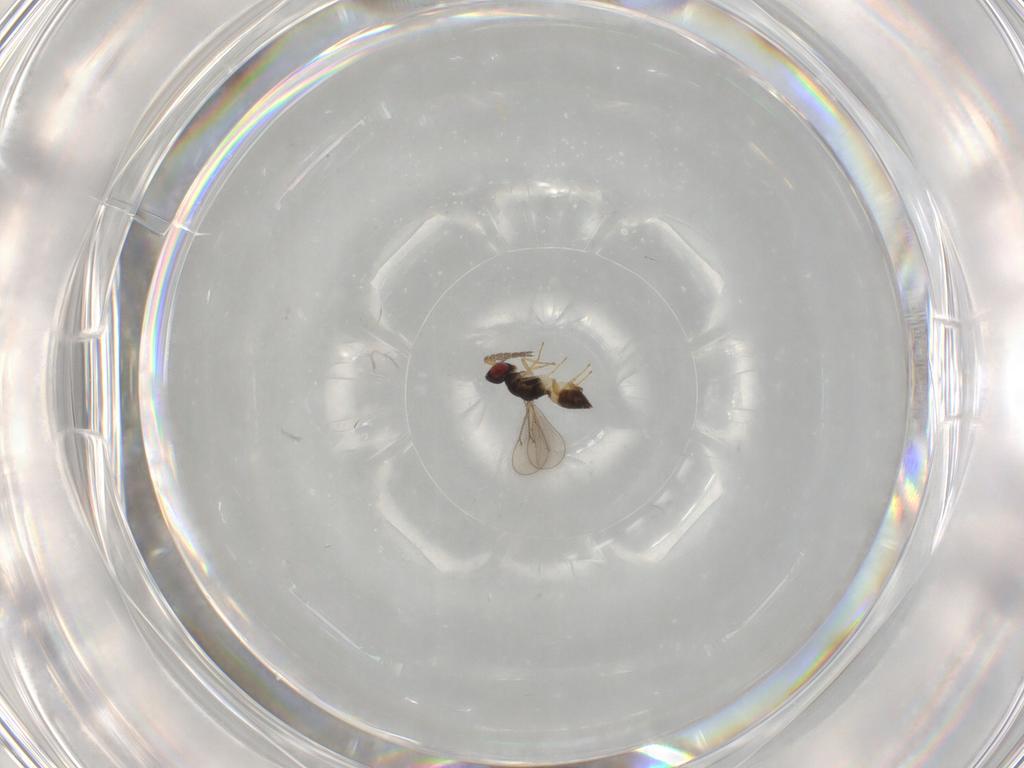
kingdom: Animalia
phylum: Arthropoda
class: Insecta
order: Hymenoptera
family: Eulophidae
